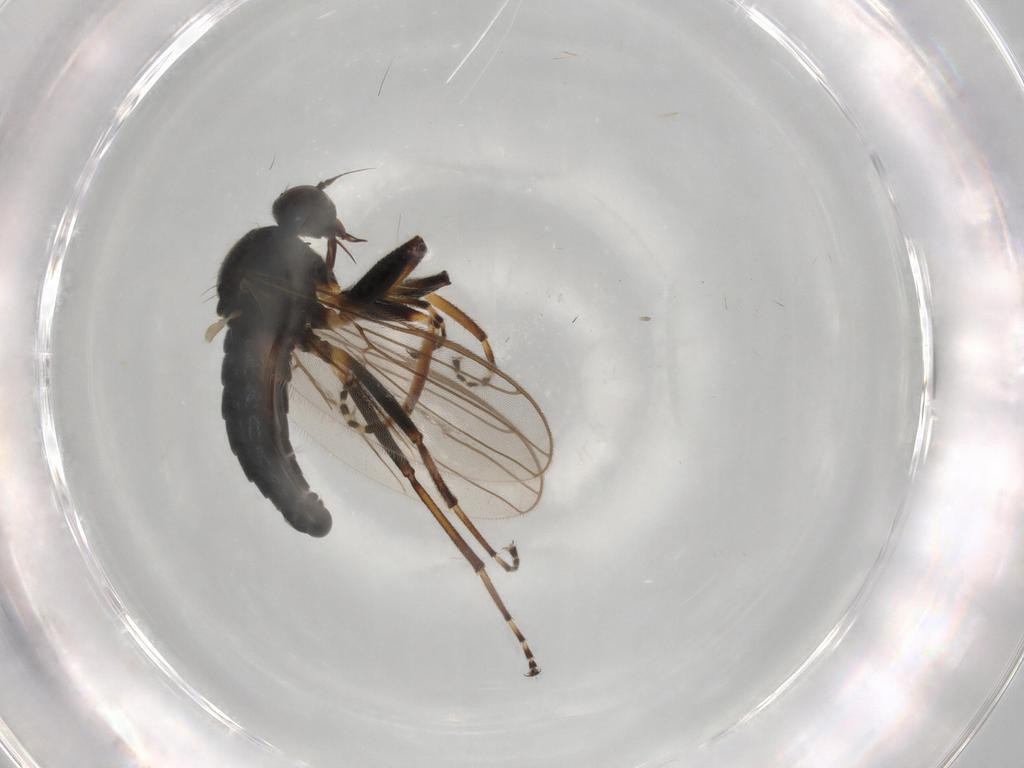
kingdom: Animalia
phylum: Arthropoda
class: Insecta
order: Diptera
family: Hybotidae
